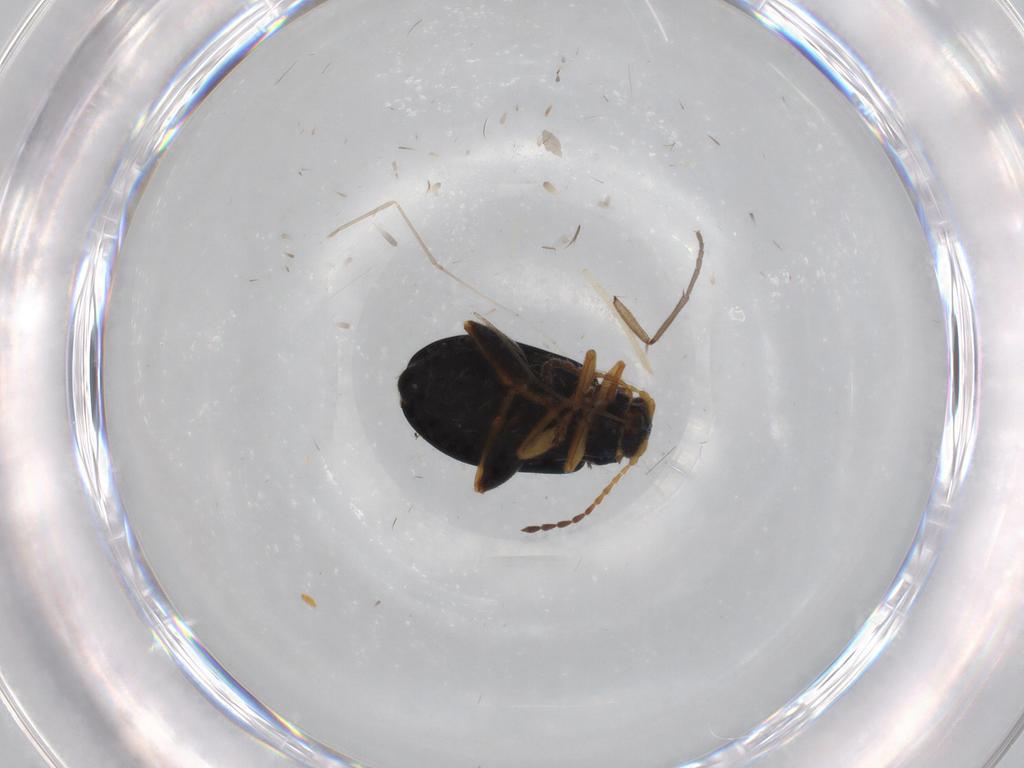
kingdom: Animalia
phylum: Arthropoda
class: Insecta
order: Coleoptera
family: Chrysomelidae
